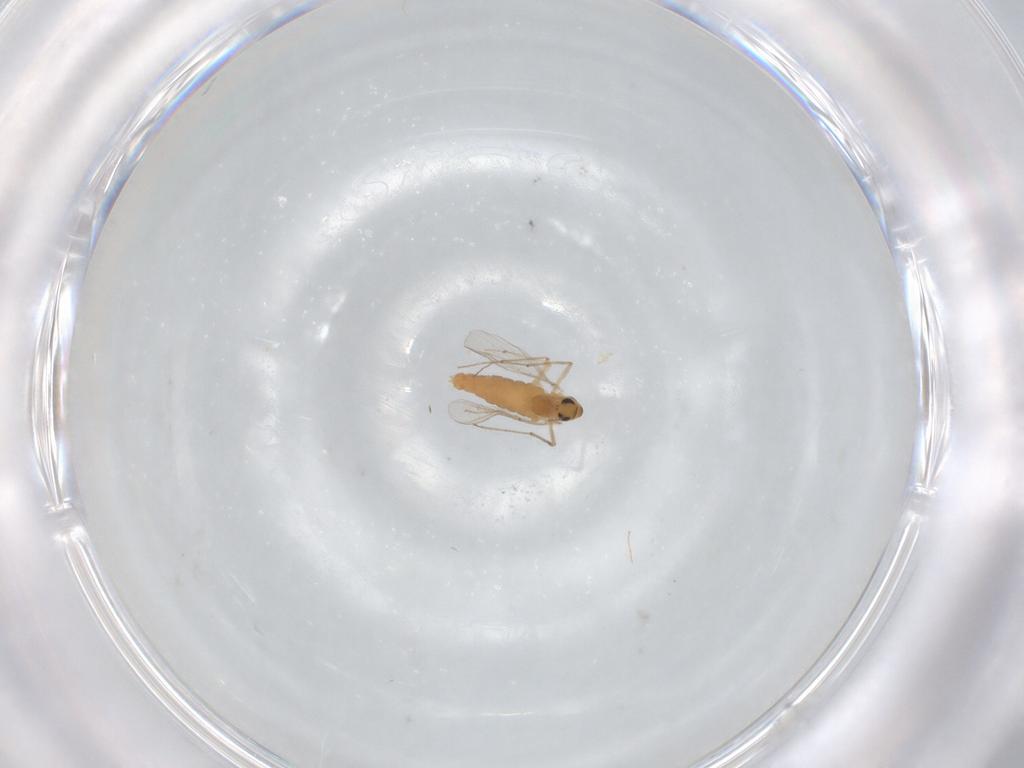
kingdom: Animalia
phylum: Arthropoda
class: Insecta
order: Diptera
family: Chironomidae
